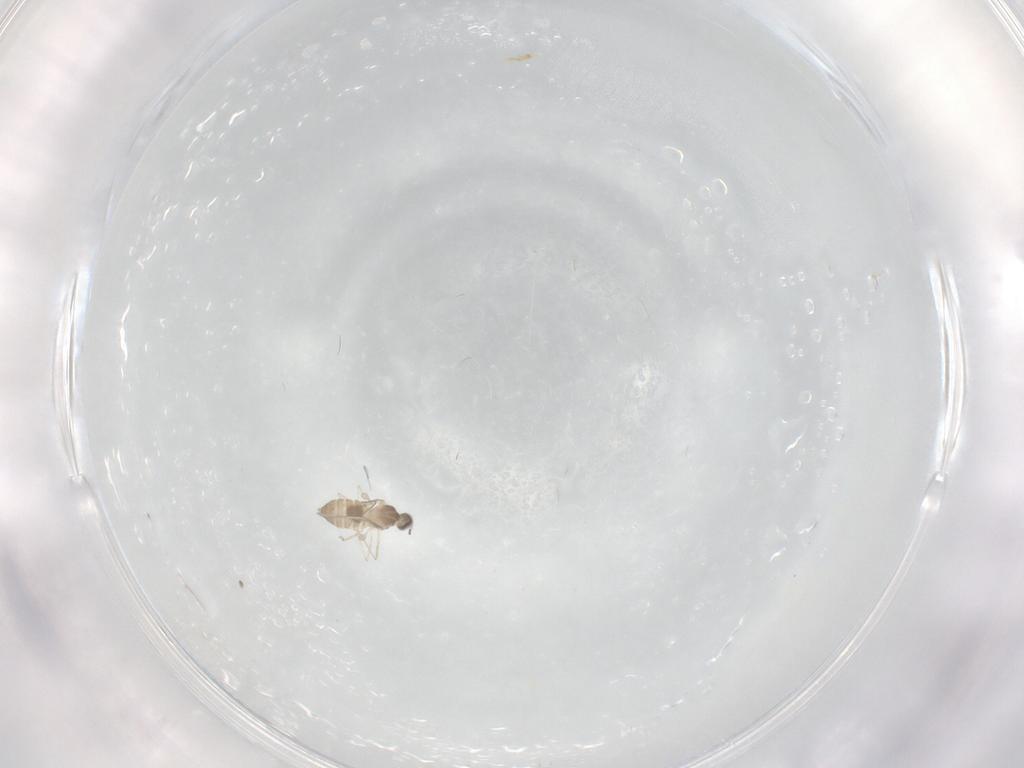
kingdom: Animalia
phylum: Arthropoda
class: Insecta
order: Diptera
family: Cecidomyiidae
